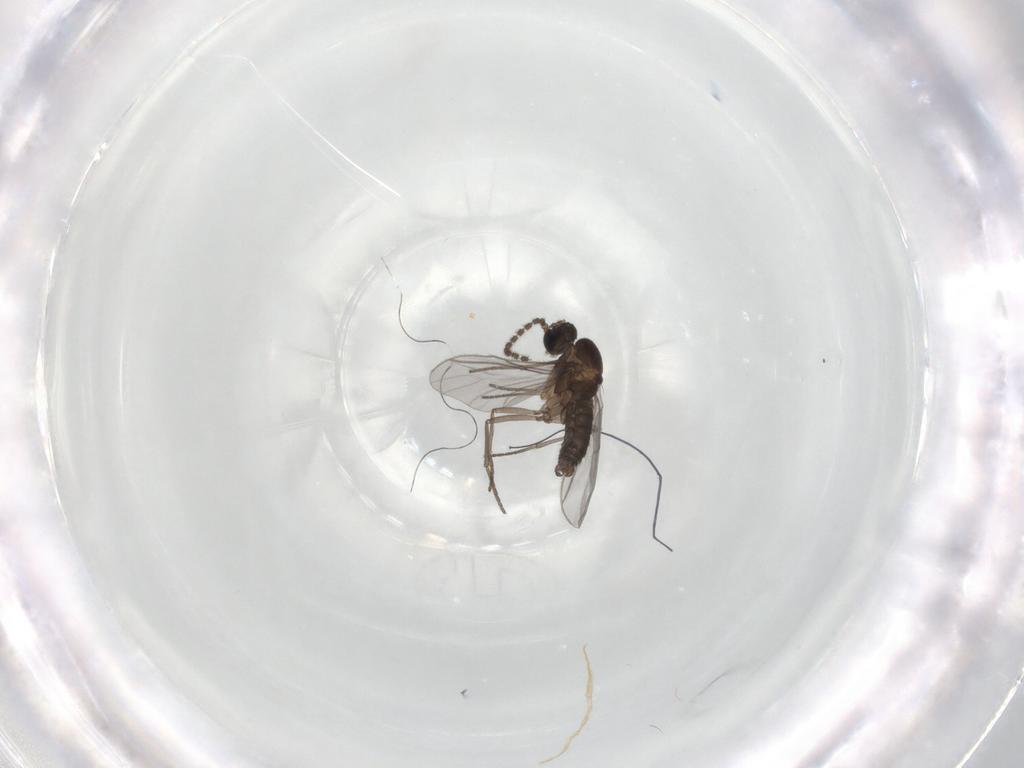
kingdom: Animalia
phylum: Arthropoda
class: Insecta
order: Diptera
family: Sciaridae
